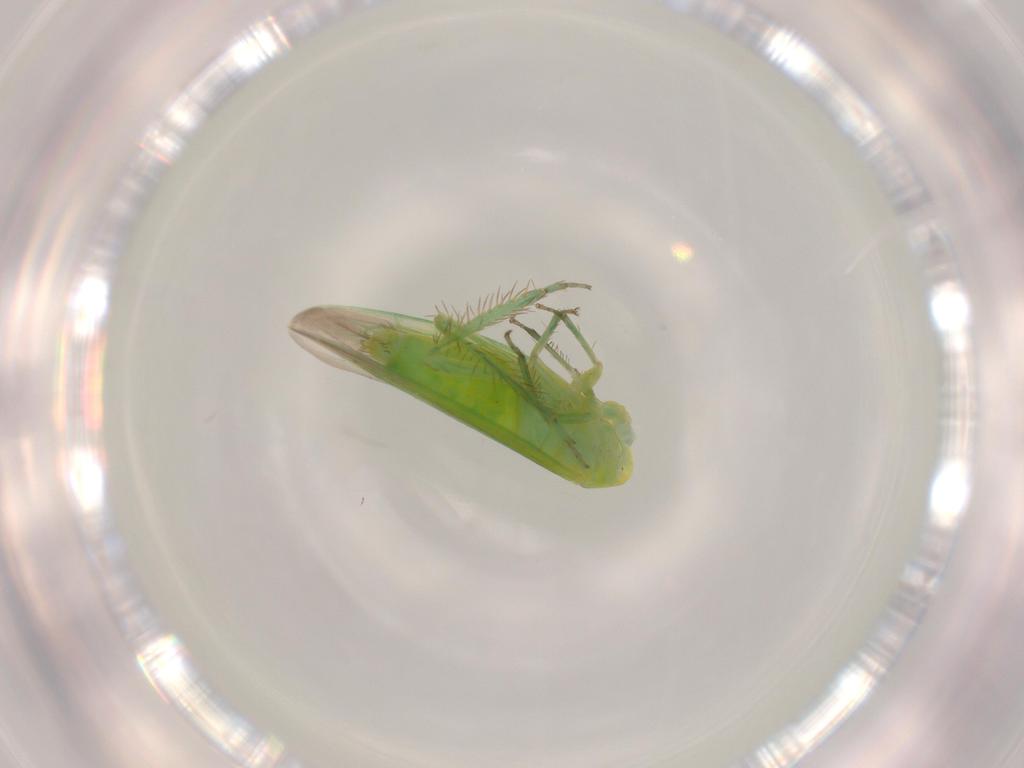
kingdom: Animalia
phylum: Arthropoda
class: Insecta
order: Hemiptera
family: Cicadellidae
